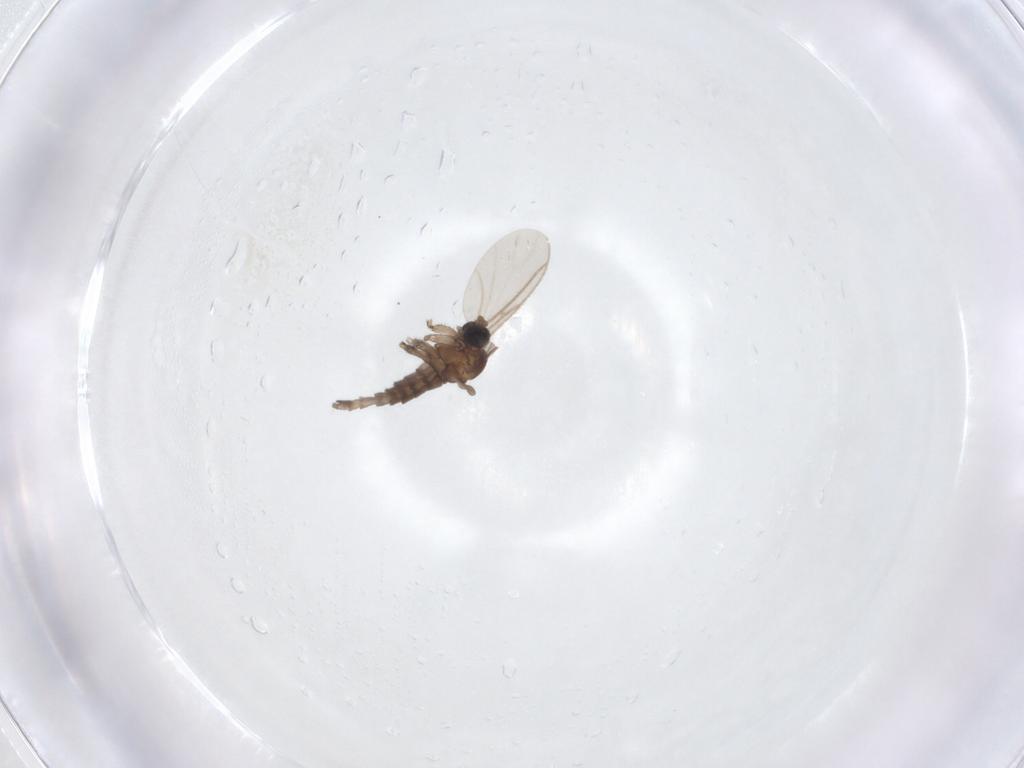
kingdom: Animalia
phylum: Arthropoda
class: Insecta
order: Diptera
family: Sciaridae
